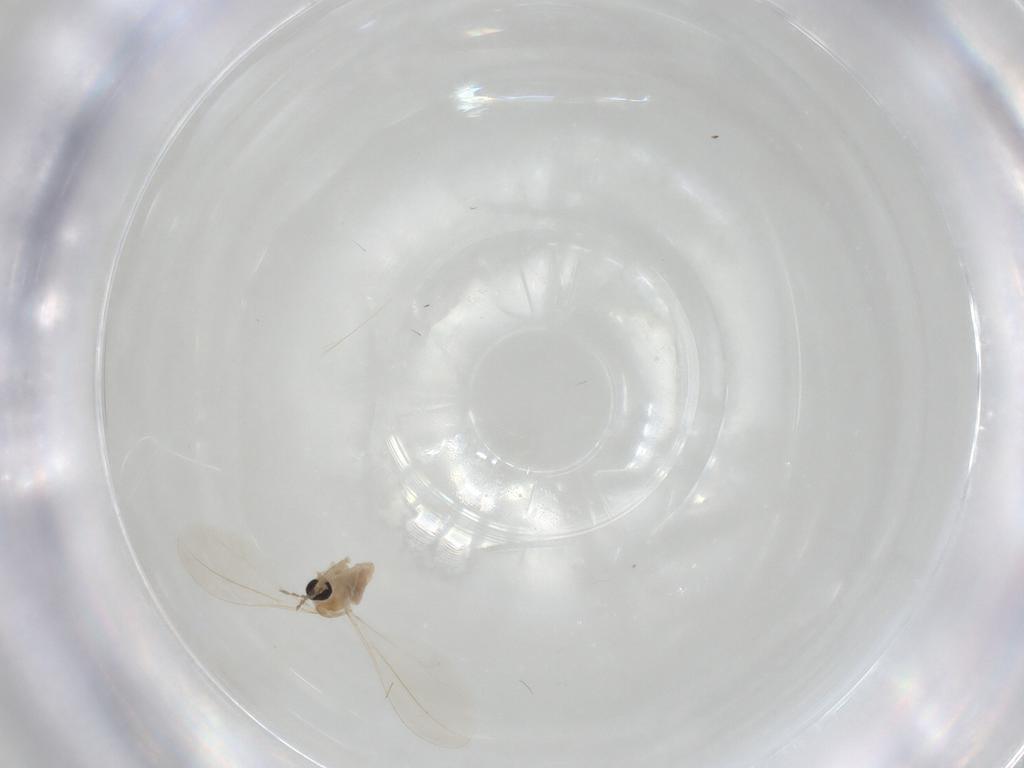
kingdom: Animalia
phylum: Arthropoda
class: Insecta
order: Diptera
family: Cecidomyiidae
